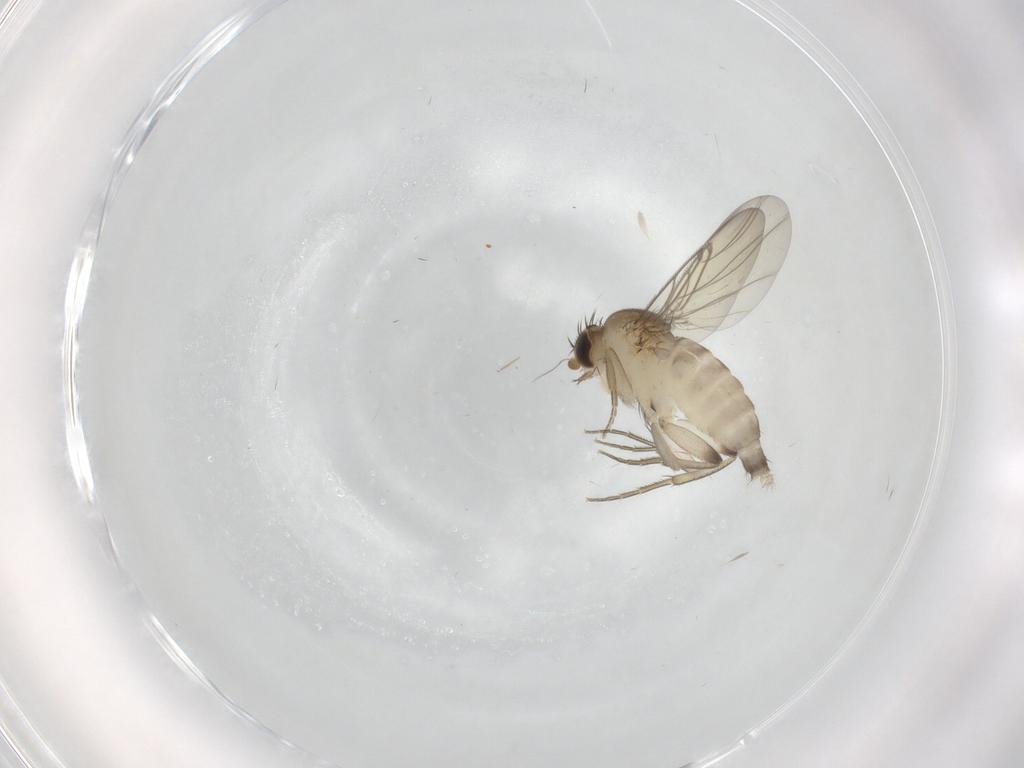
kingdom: Animalia
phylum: Arthropoda
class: Insecta
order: Diptera
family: Phoridae
